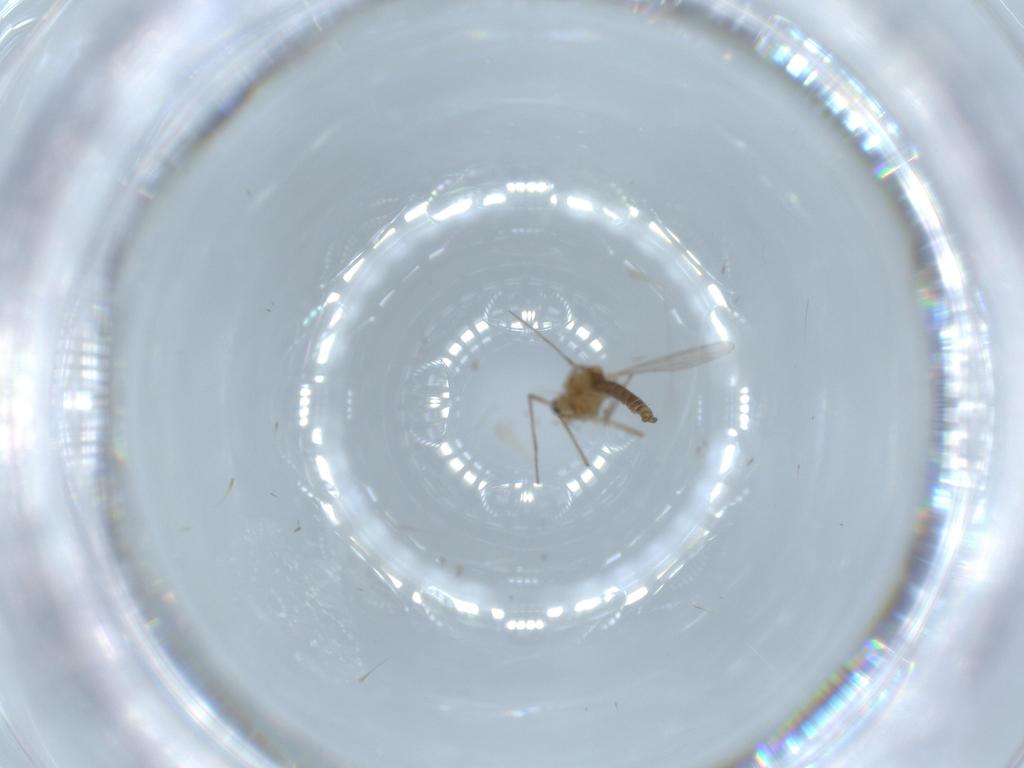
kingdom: Animalia
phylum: Arthropoda
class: Insecta
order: Diptera
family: Chironomidae
